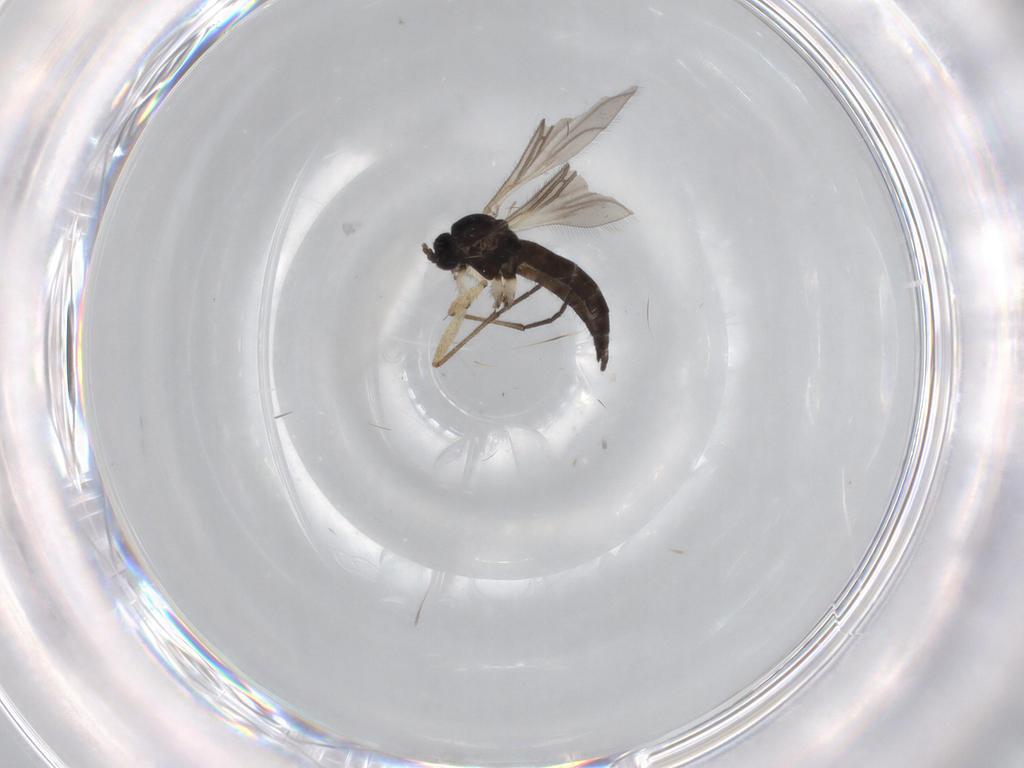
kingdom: Animalia
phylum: Arthropoda
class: Insecta
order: Diptera
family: Sciaridae
